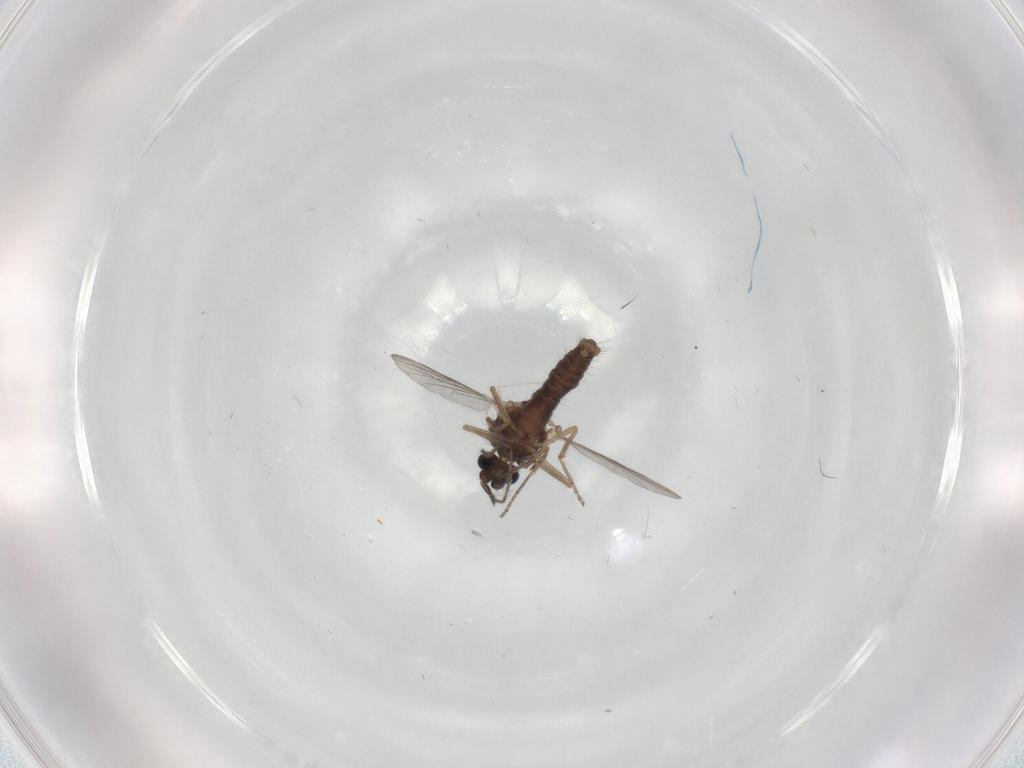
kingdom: Animalia
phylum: Arthropoda
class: Insecta
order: Diptera
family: Ceratopogonidae
